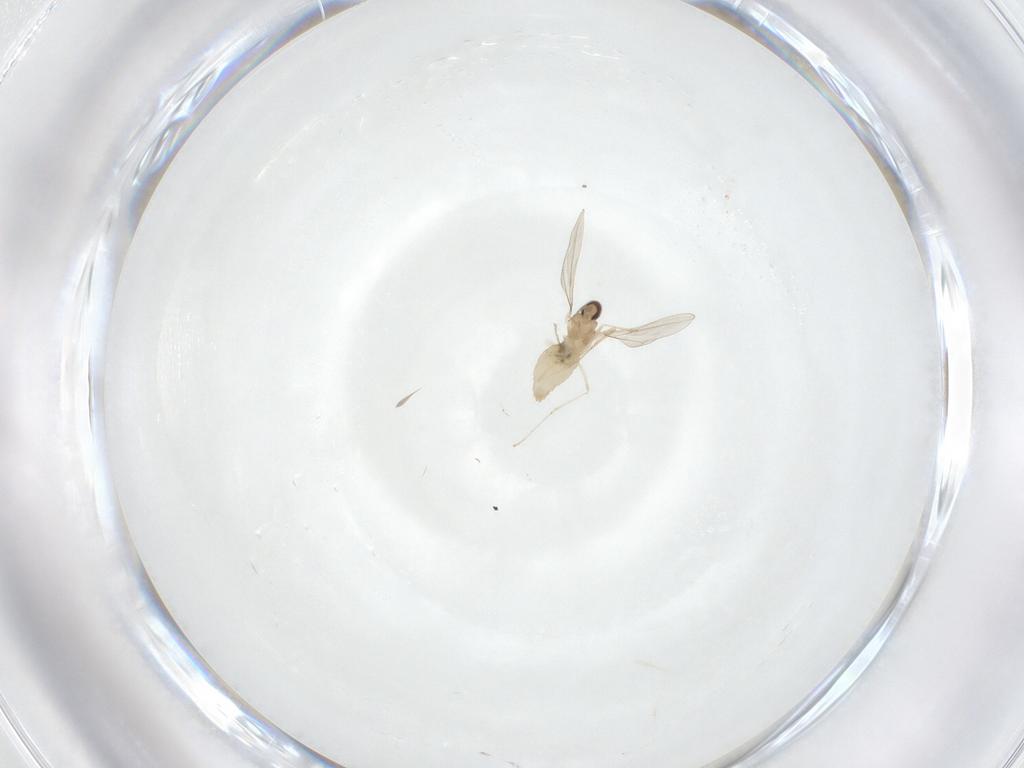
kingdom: Animalia
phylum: Arthropoda
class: Insecta
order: Diptera
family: Cecidomyiidae
